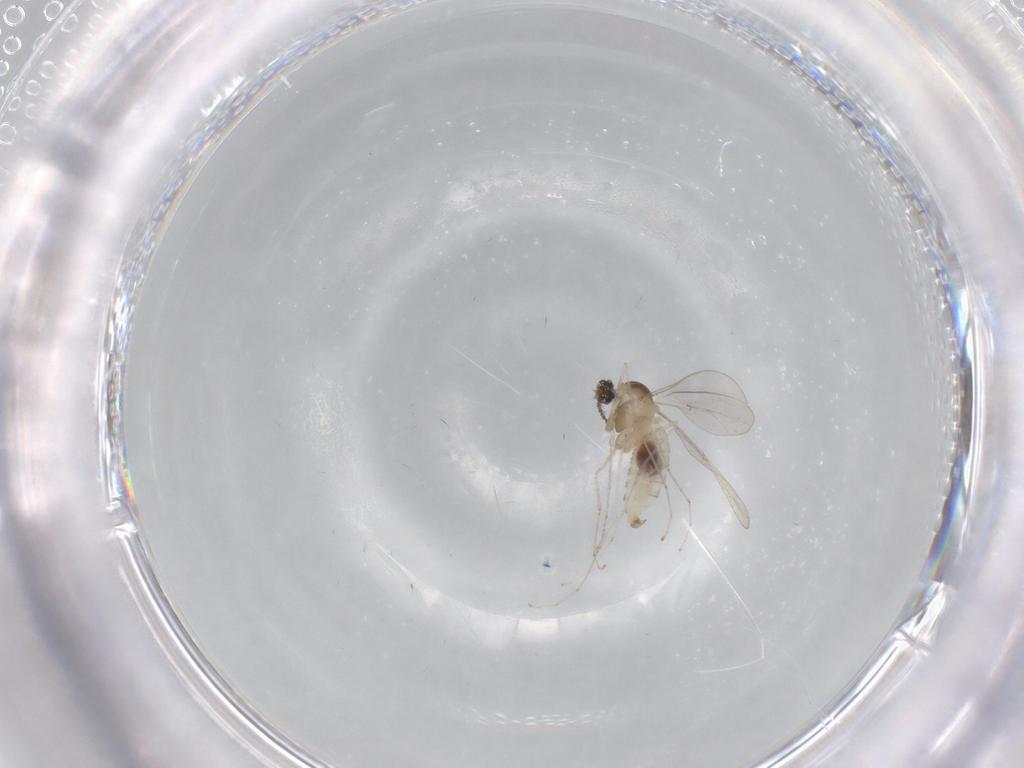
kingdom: Animalia
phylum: Arthropoda
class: Insecta
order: Diptera
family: Cecidomyiidae
